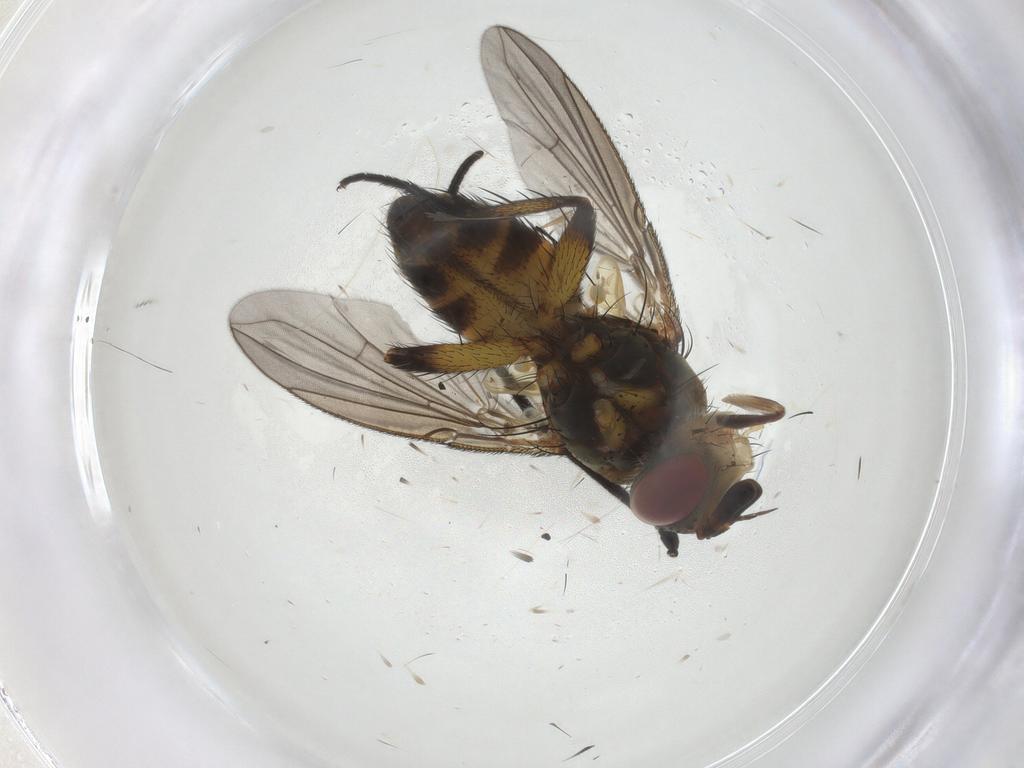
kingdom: Animalia
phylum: Arthropoda
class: Insecta
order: Diptera
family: Tachinidae
